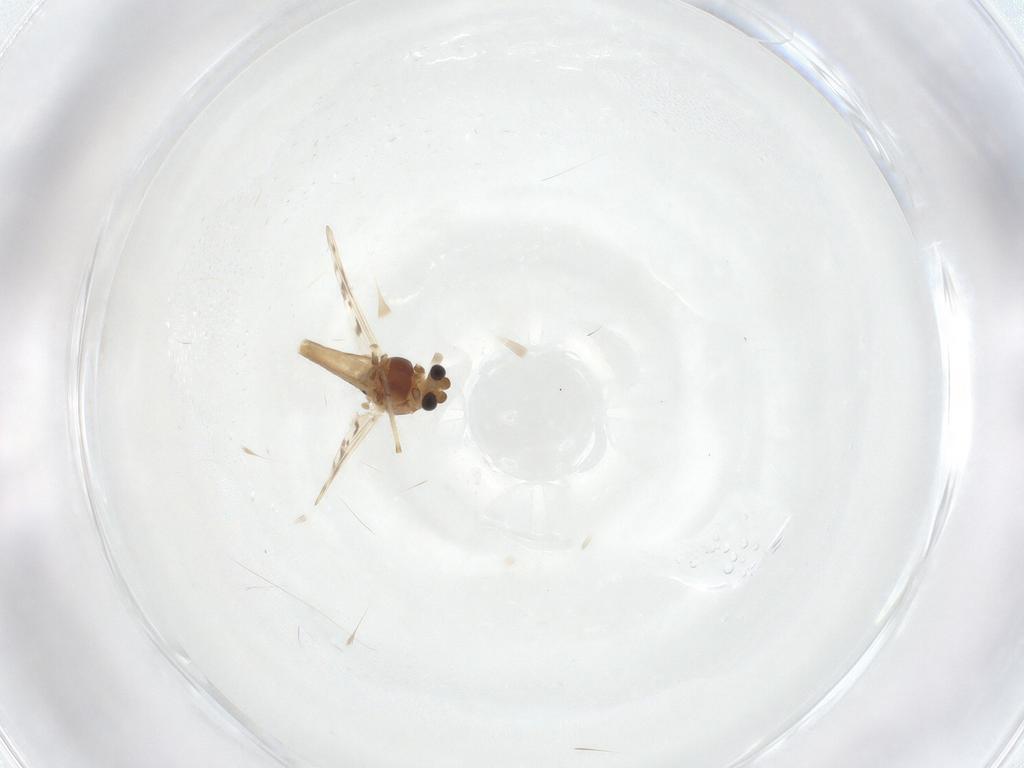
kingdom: Animalia
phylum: Arthropoda
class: Insecta
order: Diptera
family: Chironomidae
